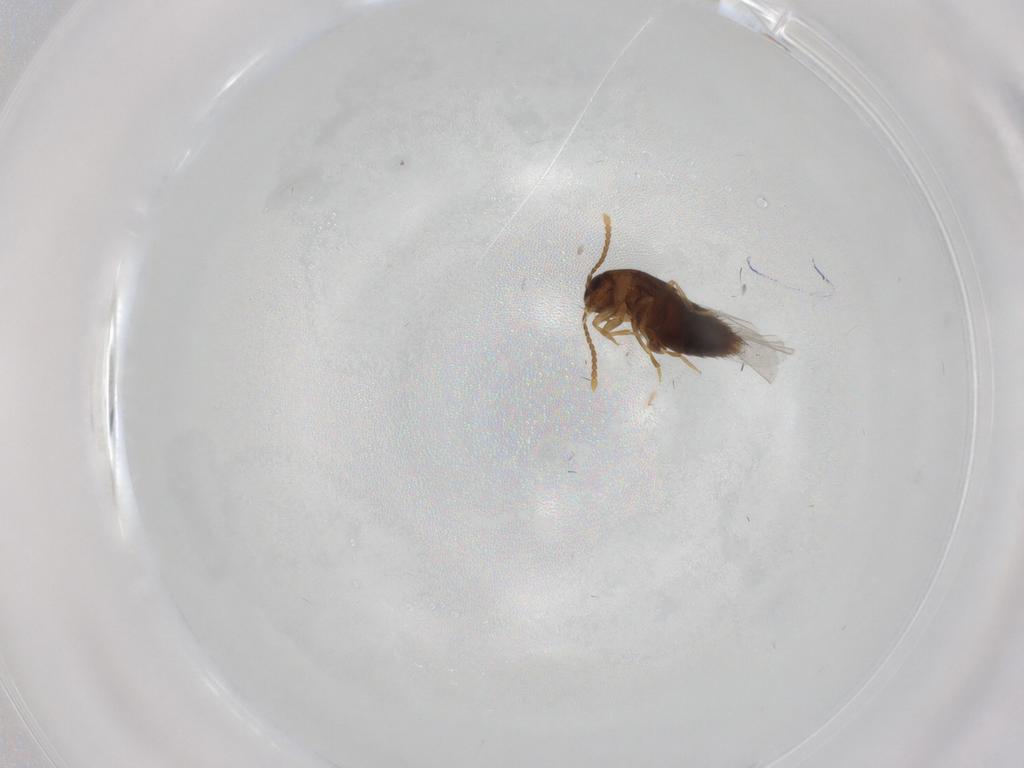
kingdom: Animalia
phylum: Arthropoda
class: Insecta
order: Coleoptera
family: Staphylinidae
